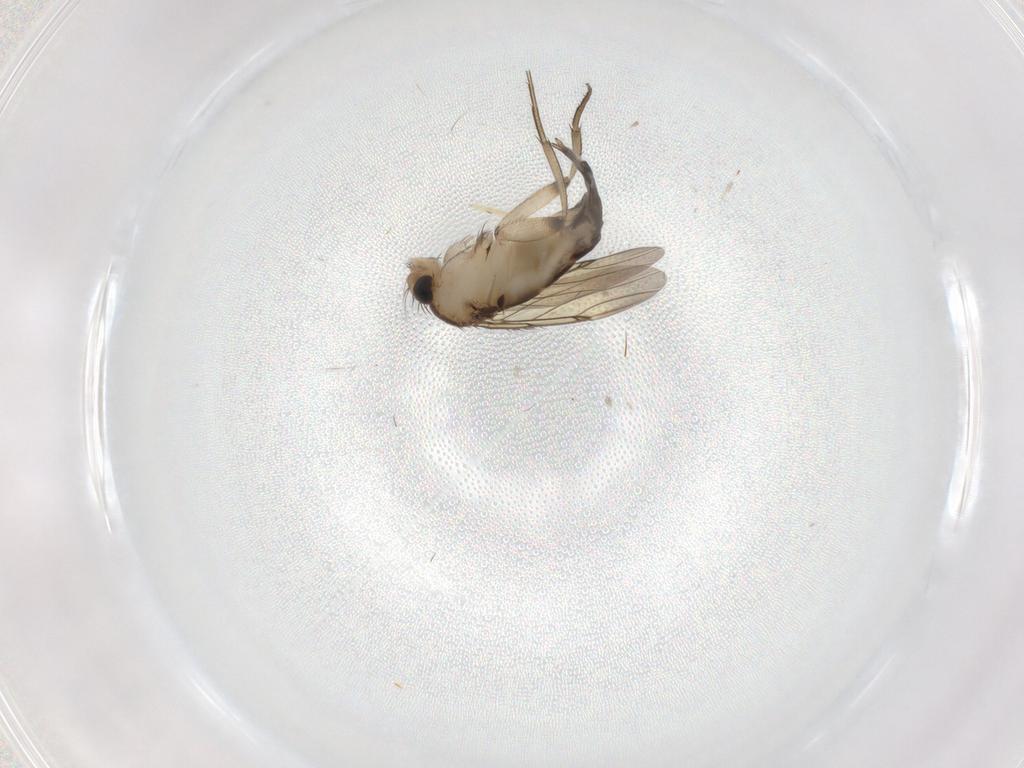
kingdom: Animalia
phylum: Arthropoda
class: Insecta
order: Diptera
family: Phoridae
